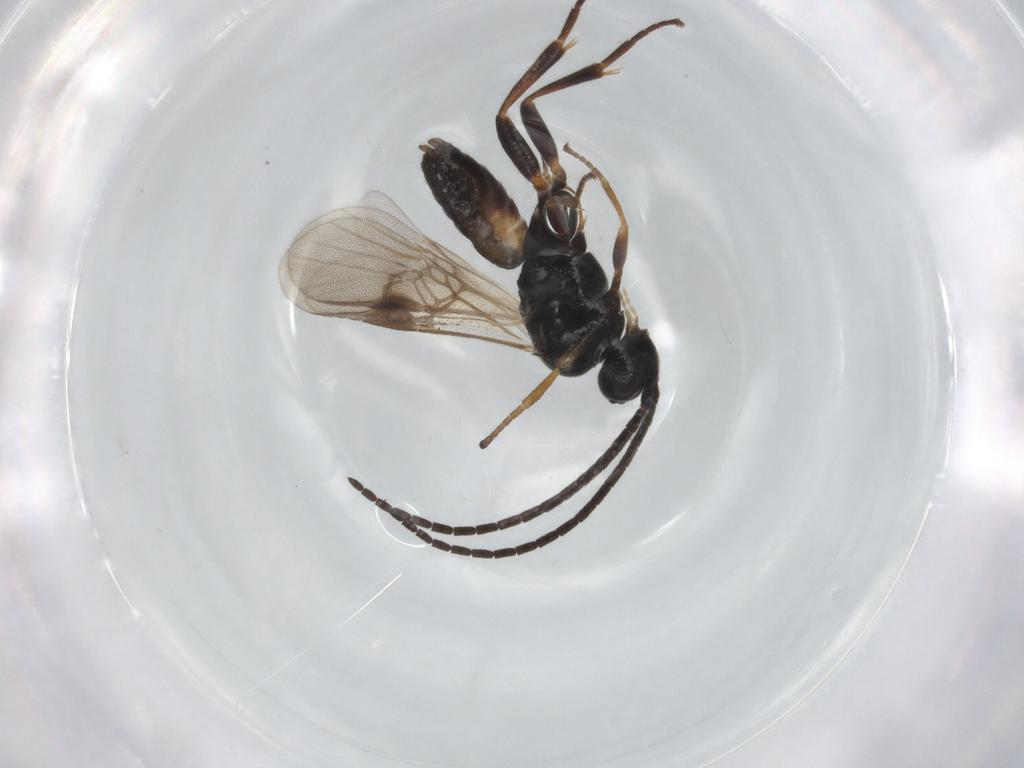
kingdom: Animalia
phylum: Arthropoda
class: Insecta
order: Hymenoptera
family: Braconidae
